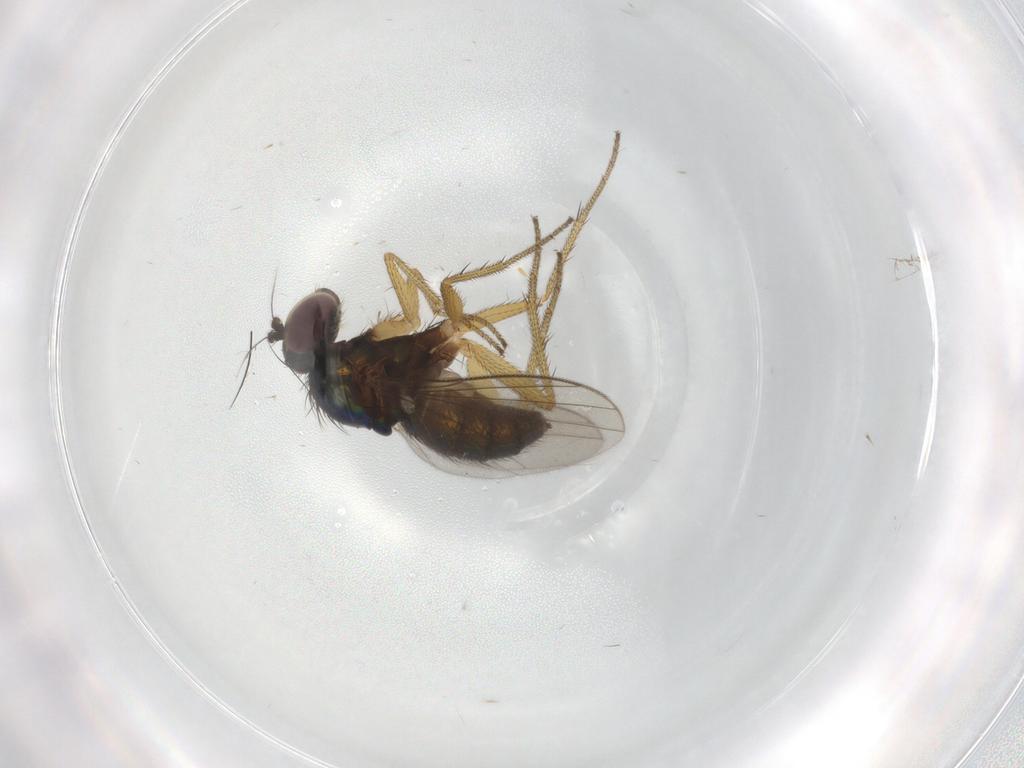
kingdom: Animalia
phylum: Arthropoda
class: Insecta
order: Diptera
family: Dolichopodidae
